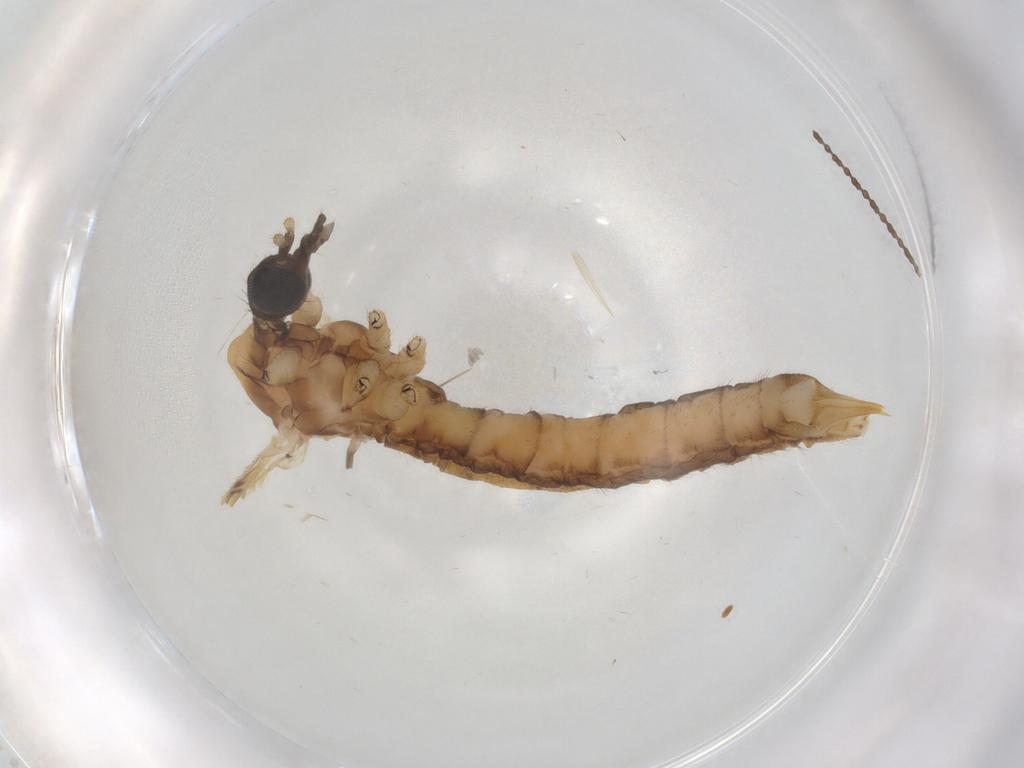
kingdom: Animalia
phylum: Arthropoda
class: Insecta
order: Diptera
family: Limoniidae
